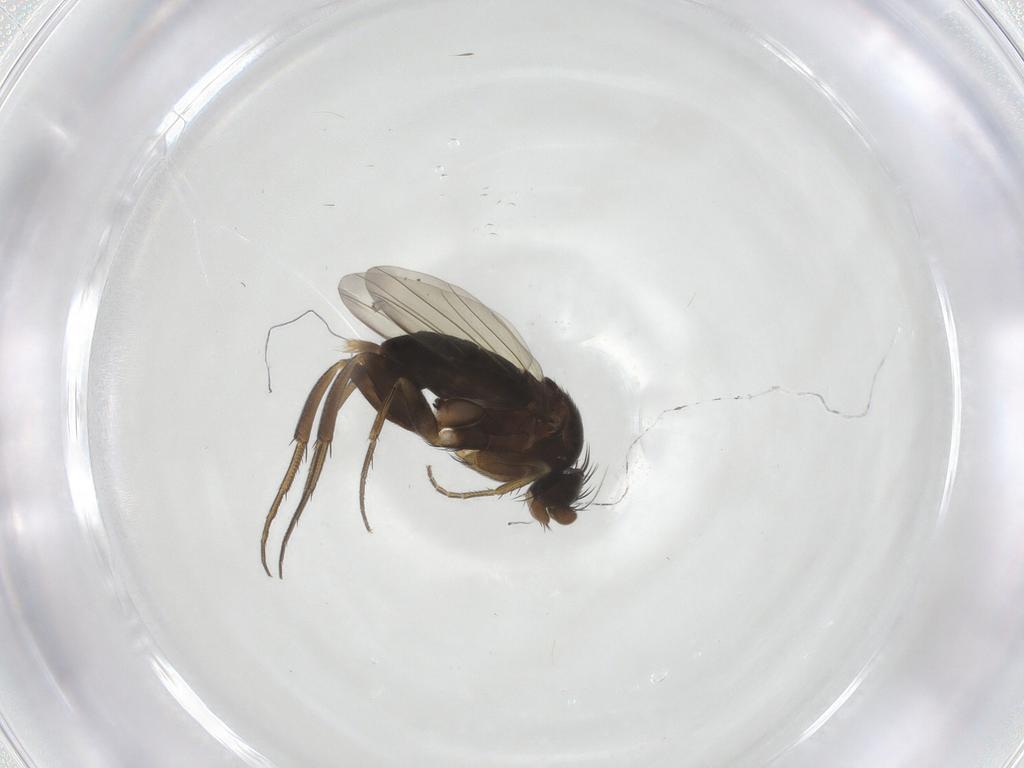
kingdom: Animalia
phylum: Arthropoda
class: Insecta
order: Diptera
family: Phoridae
